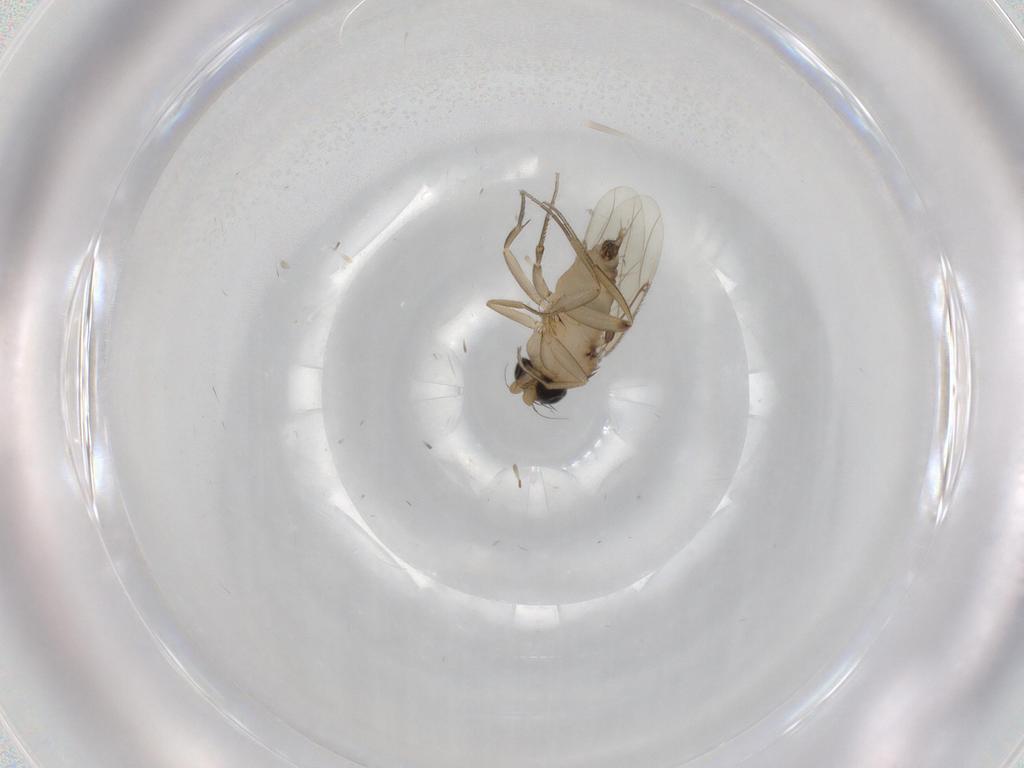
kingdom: Animalia
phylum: Arthropoda
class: Insecta
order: Diptera
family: Phoridae
